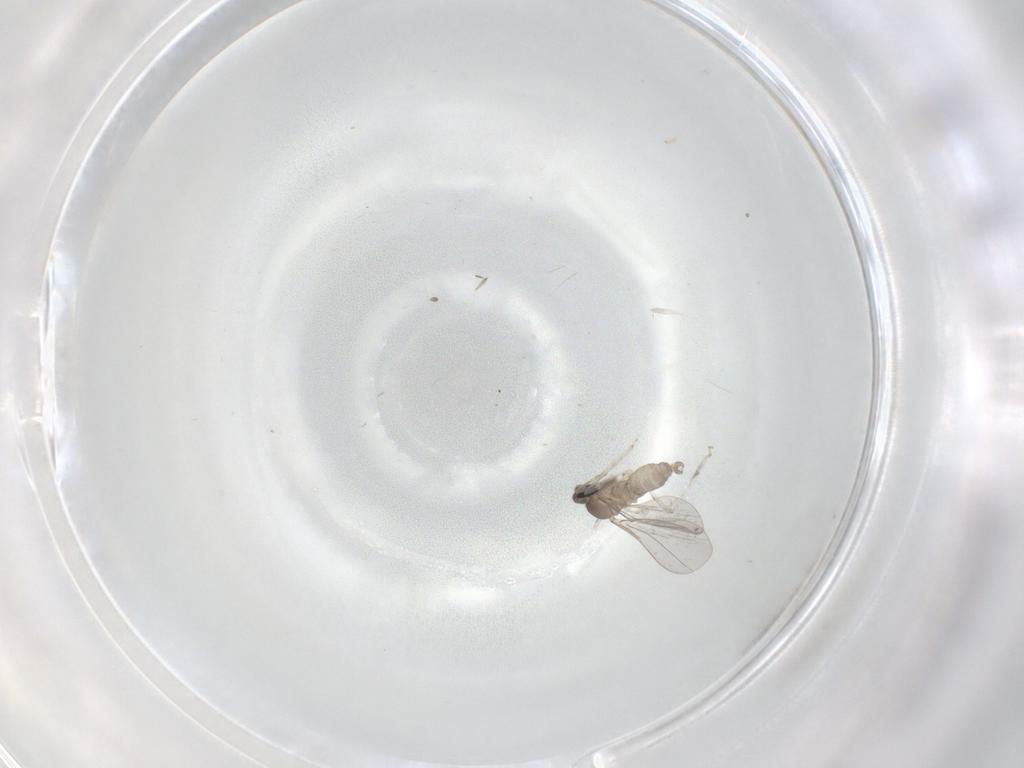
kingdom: Animalia
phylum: Arthropoda
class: Insecta
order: Diptera
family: Cecidomyiidae
